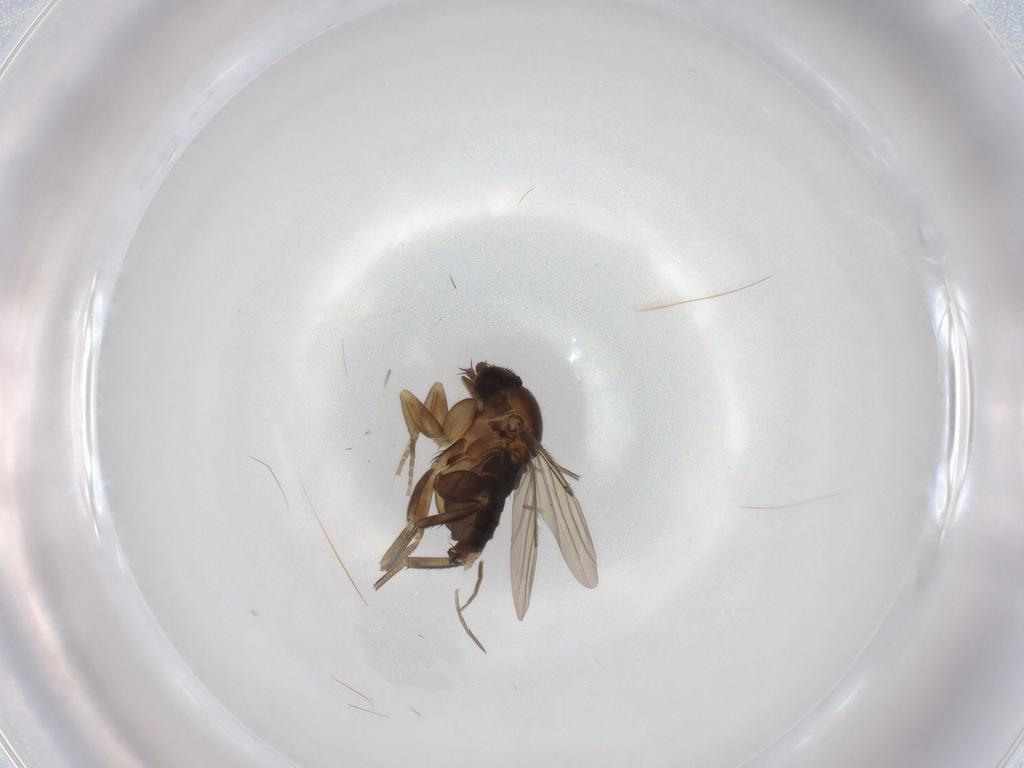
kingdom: Animalia
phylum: Arthropoda
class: Insecta
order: Diptera
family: Phoridae
